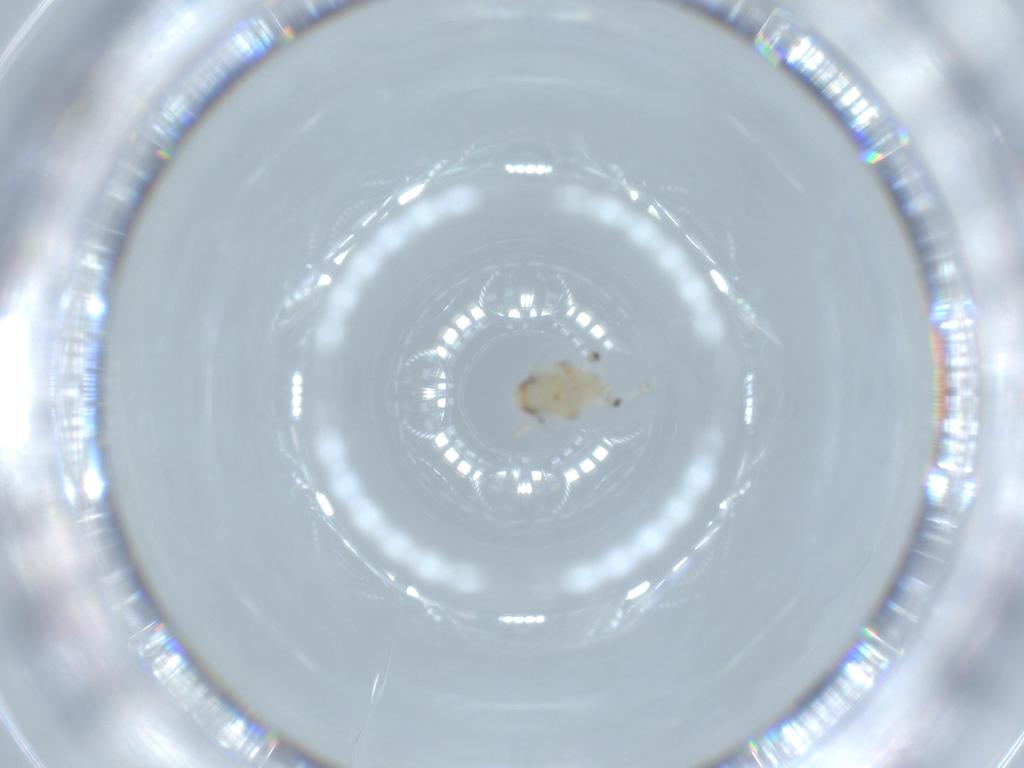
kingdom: Animalia
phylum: Arthropoda
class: Insecta
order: Hemiptera
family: Nogodinidae
